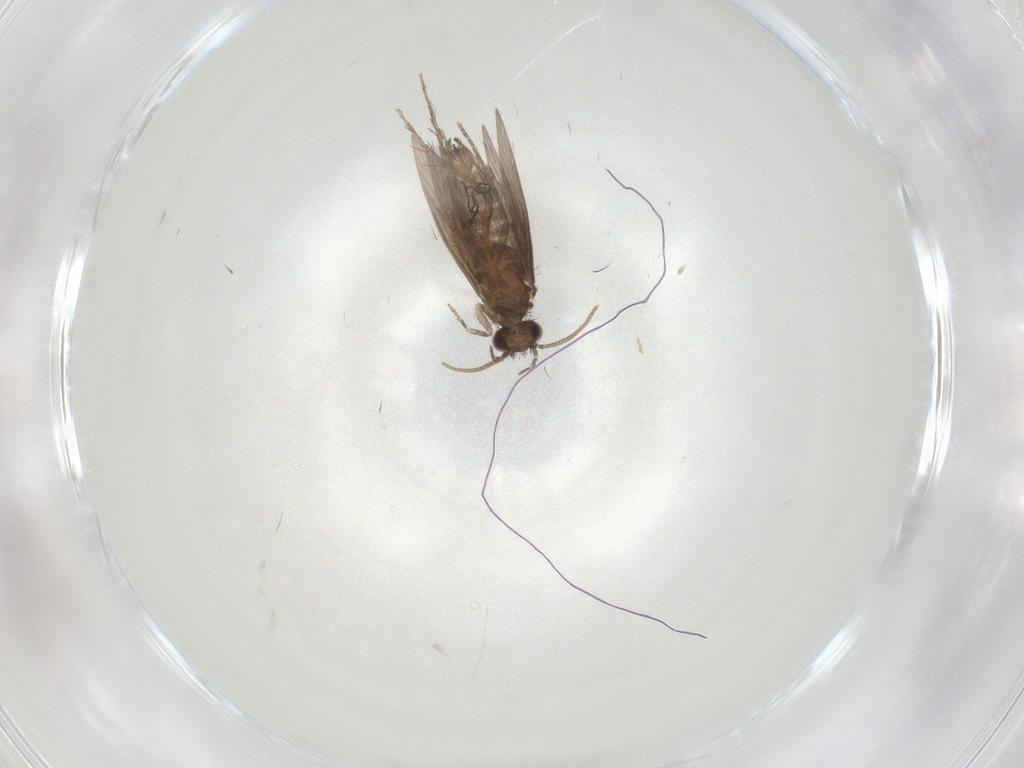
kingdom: Animalia
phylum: Arthropoda
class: Insecta
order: Trichoptera
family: Hydroptilidae
